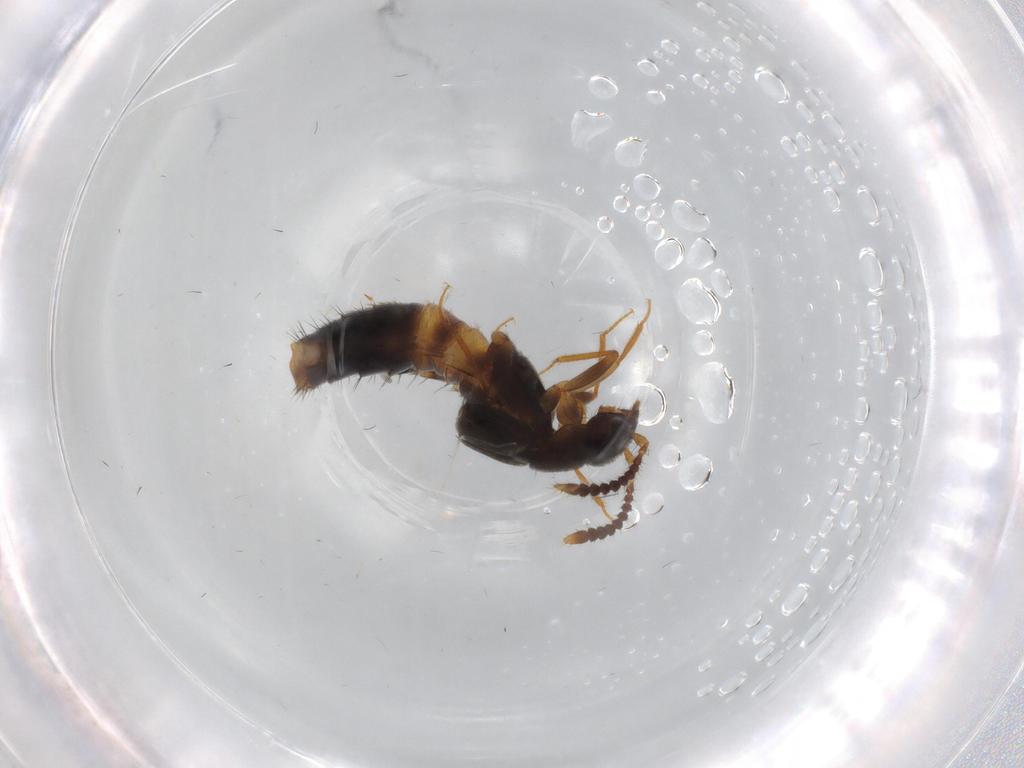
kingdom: Animalia
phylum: Arthropoda
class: Insecta
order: Coleoptera
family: Staphylinidae
